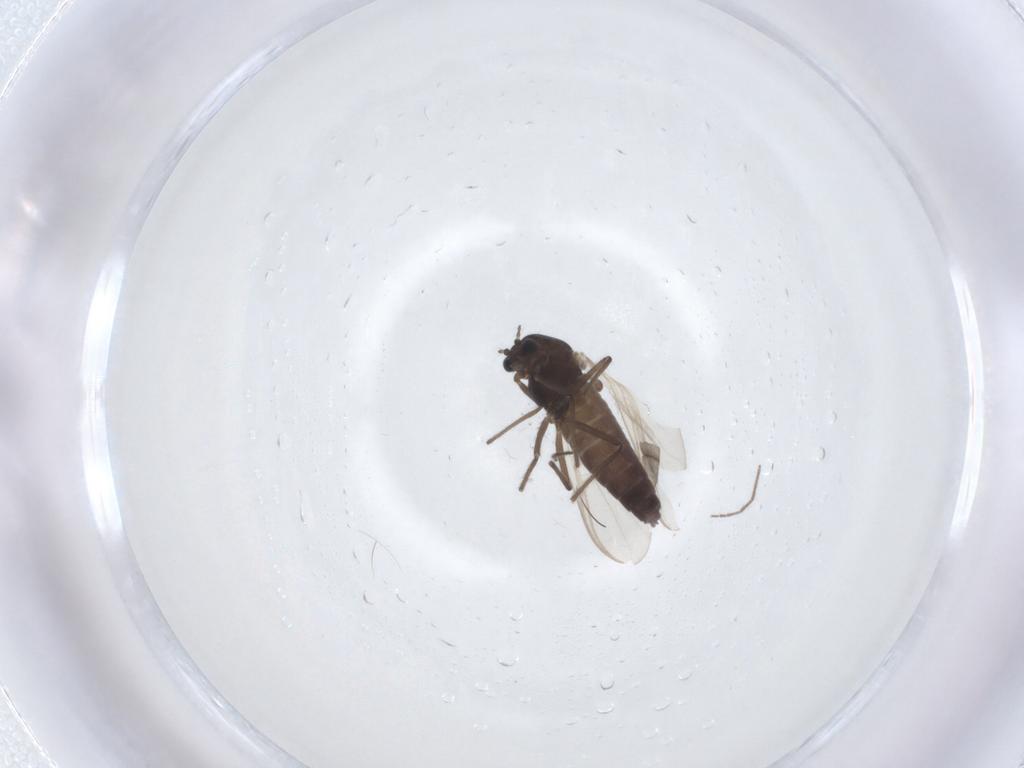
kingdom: Animalia
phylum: Arthropoda
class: Insecta
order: Diptera
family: Chironomidae
